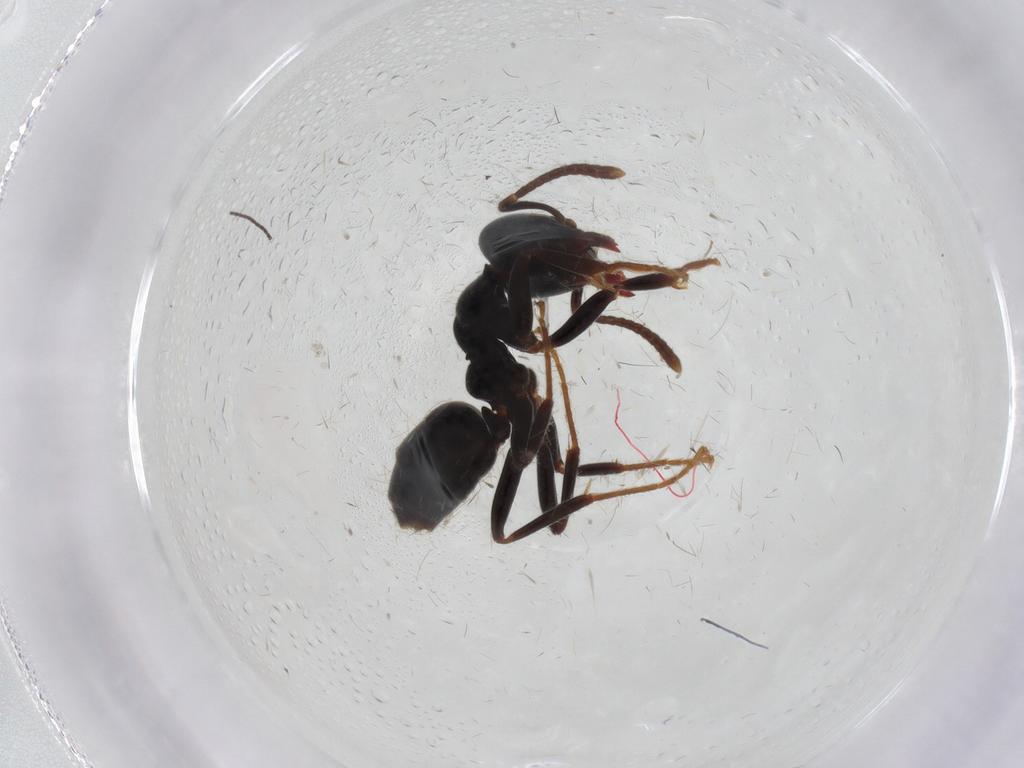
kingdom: Animalia
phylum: Arthropoda
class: Insecta
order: Hymenoptera
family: Formicidae
